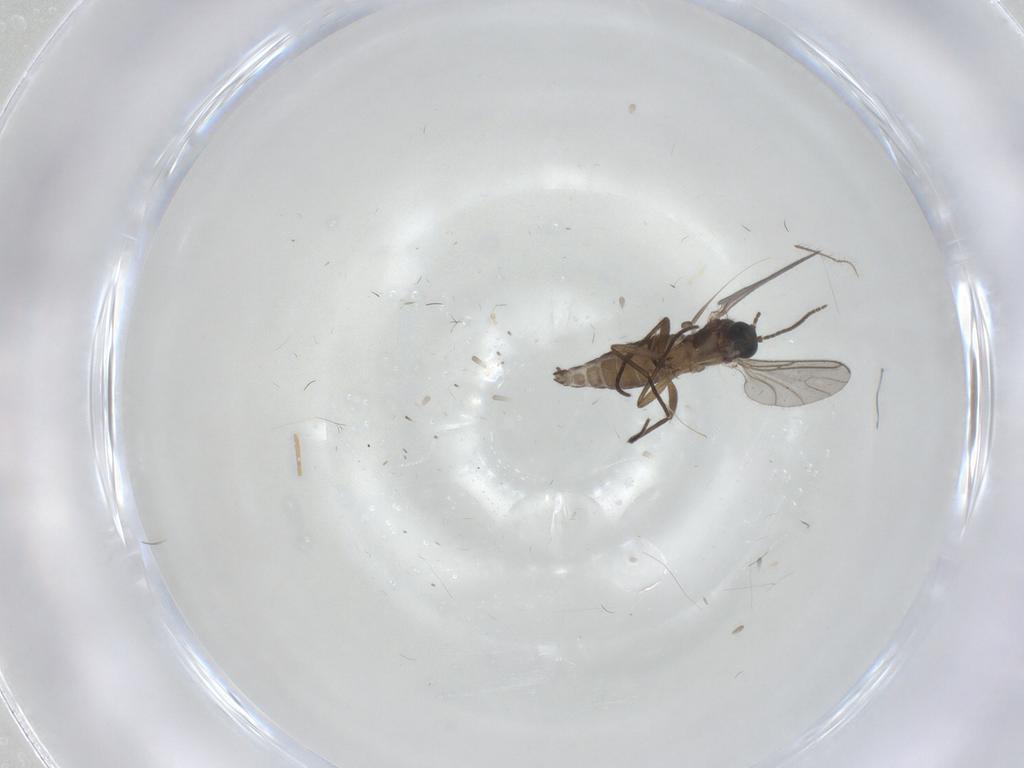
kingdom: Animalia
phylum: Arthropoda
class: Insecta
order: Diptera
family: Sciaridae
